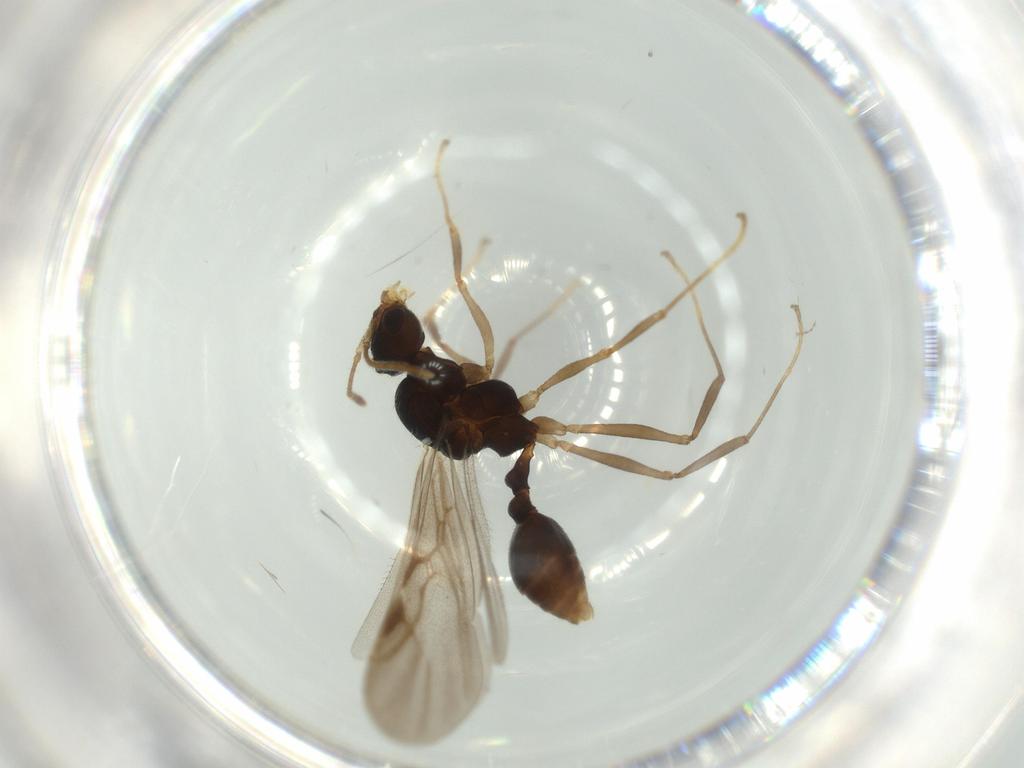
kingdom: Animalia
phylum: Arthropoda
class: Insecta
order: Hymenoptera
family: Formicidae
